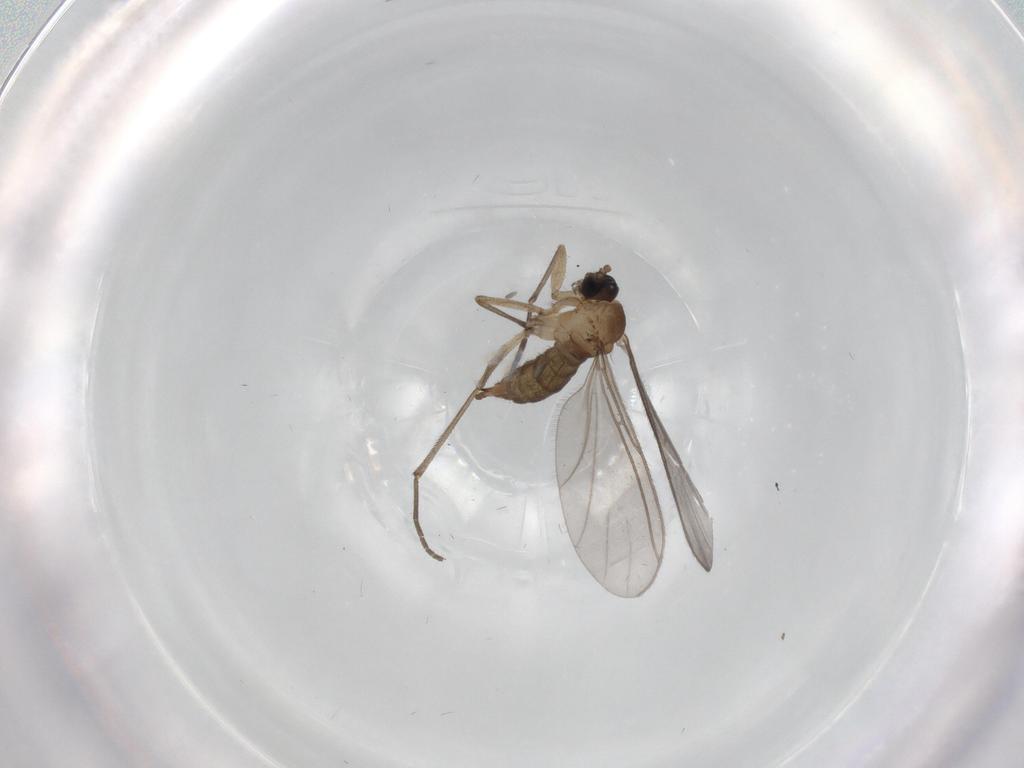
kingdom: Animalia
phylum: Arthropoda
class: Insecta
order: Diptera
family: Sciaridae
